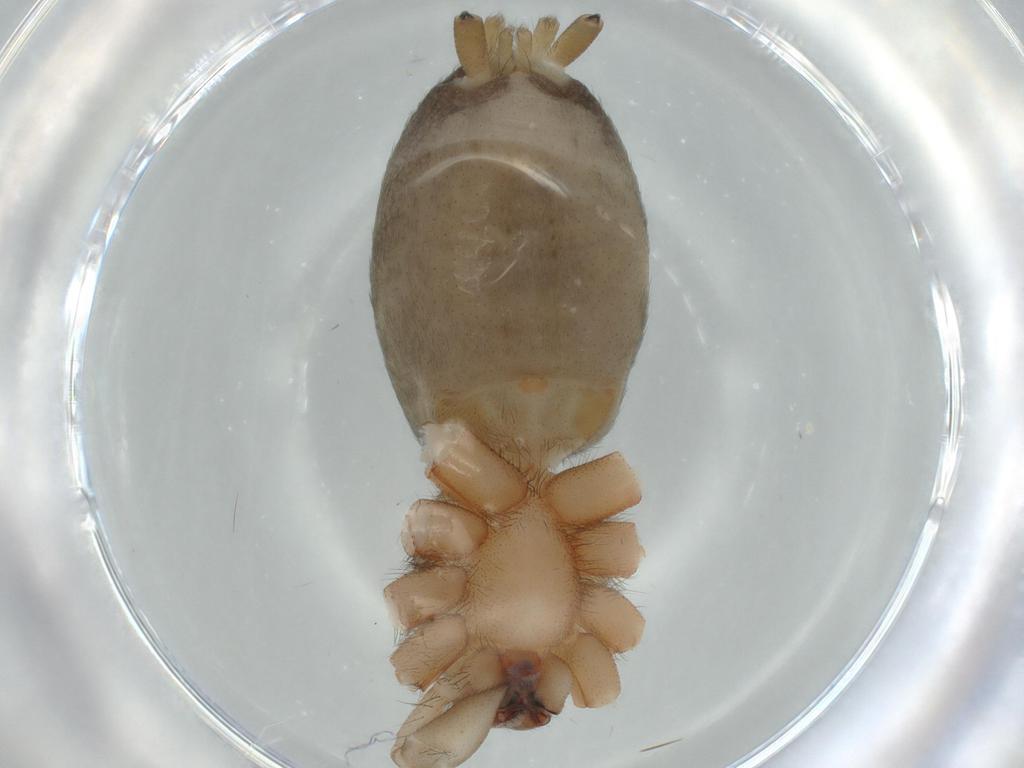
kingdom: Animalia
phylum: Arthropoda
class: Arachnida
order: Araneae
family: Gnaphosidae
